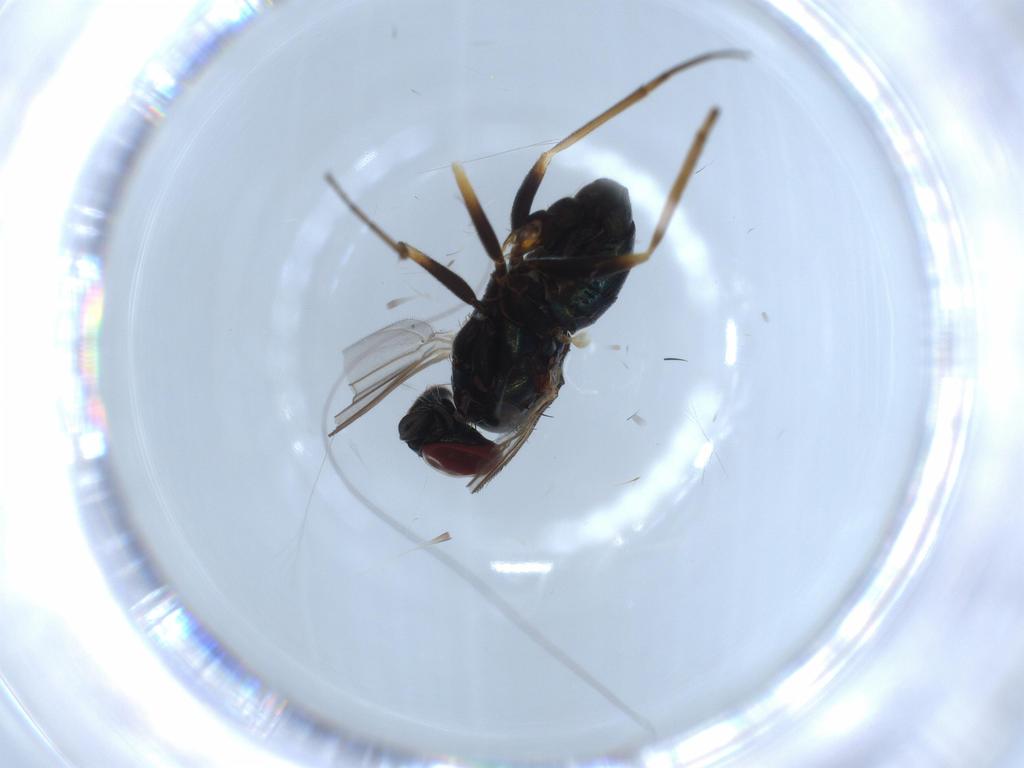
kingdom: Animalia
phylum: Arthropoda
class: Insecta
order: Diptera
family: Dolichopodidae
